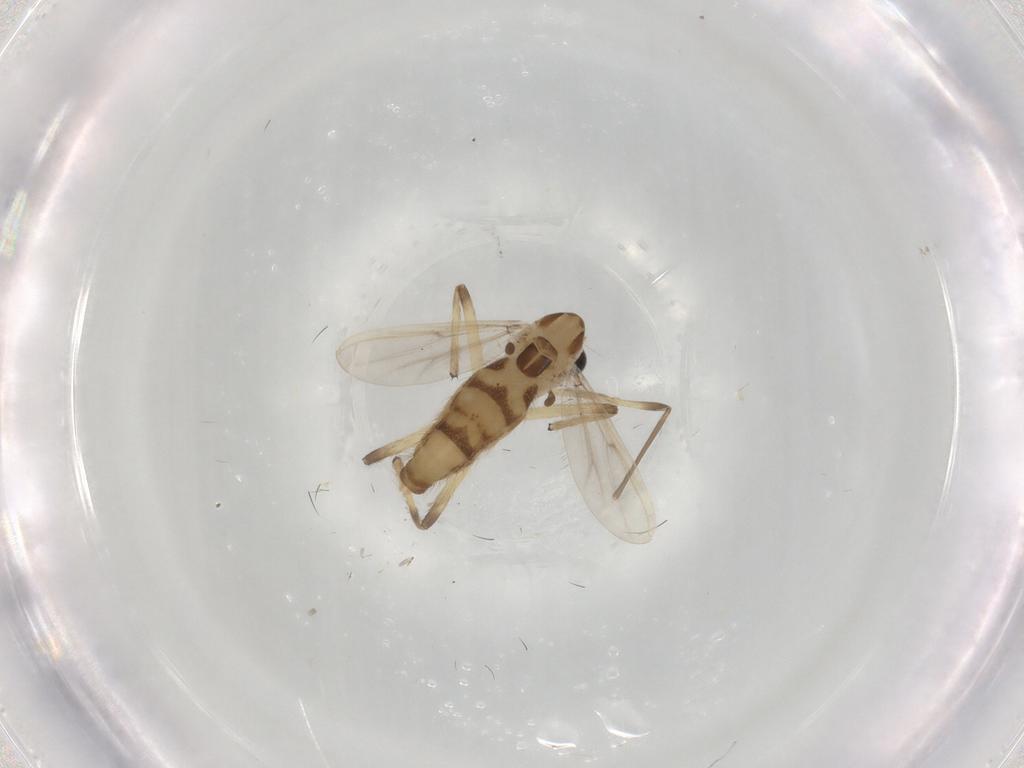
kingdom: Animalia
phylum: Arthropoda
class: Insecta
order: Diptera
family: Chironomidae
